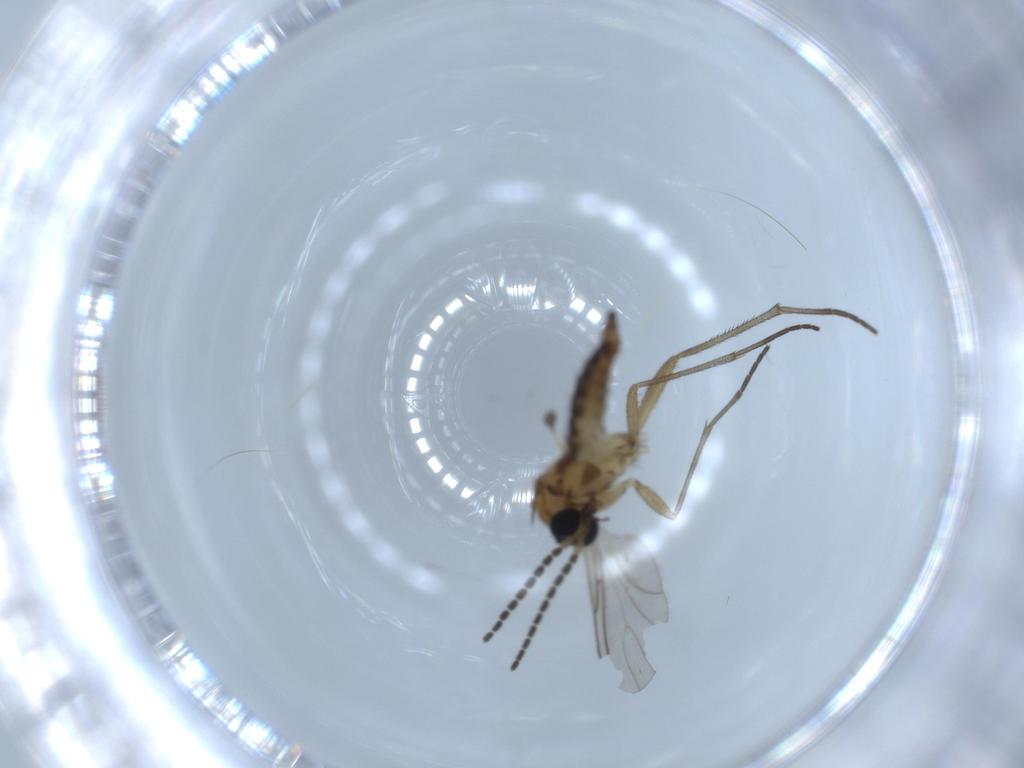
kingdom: Animalia
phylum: Arthropoda
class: Insecta
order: Diptera
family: Sciaridae
